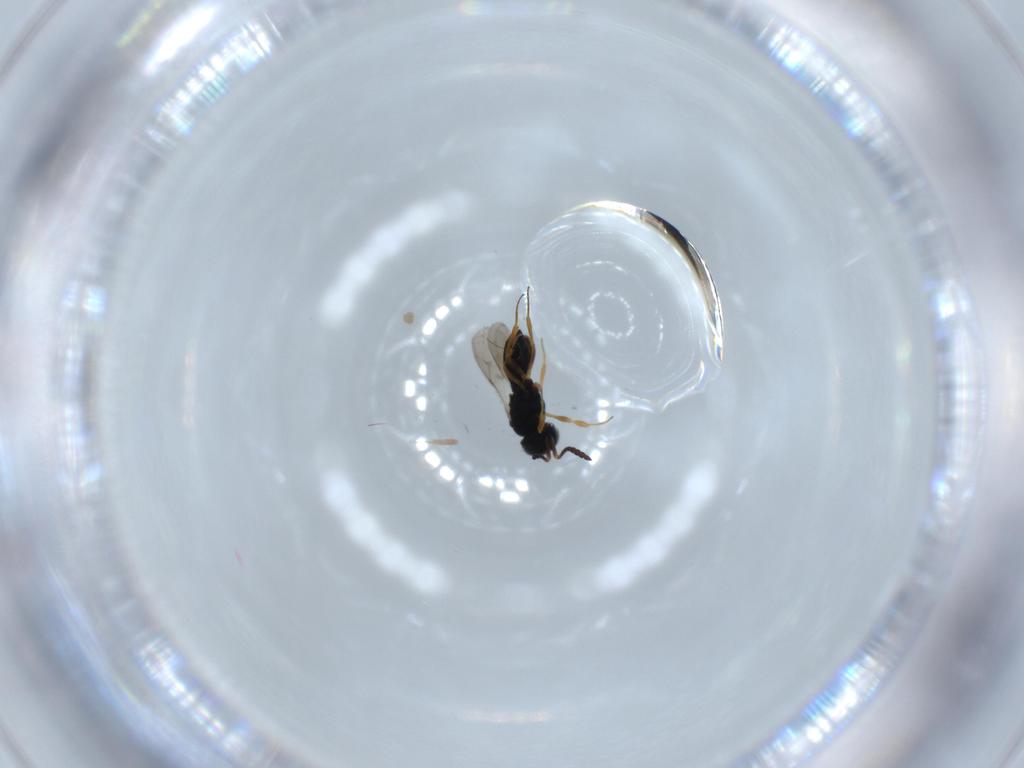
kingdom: Animalia
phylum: Arthropoda
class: Insecta
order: Hymenoptera
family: Scelionidae
